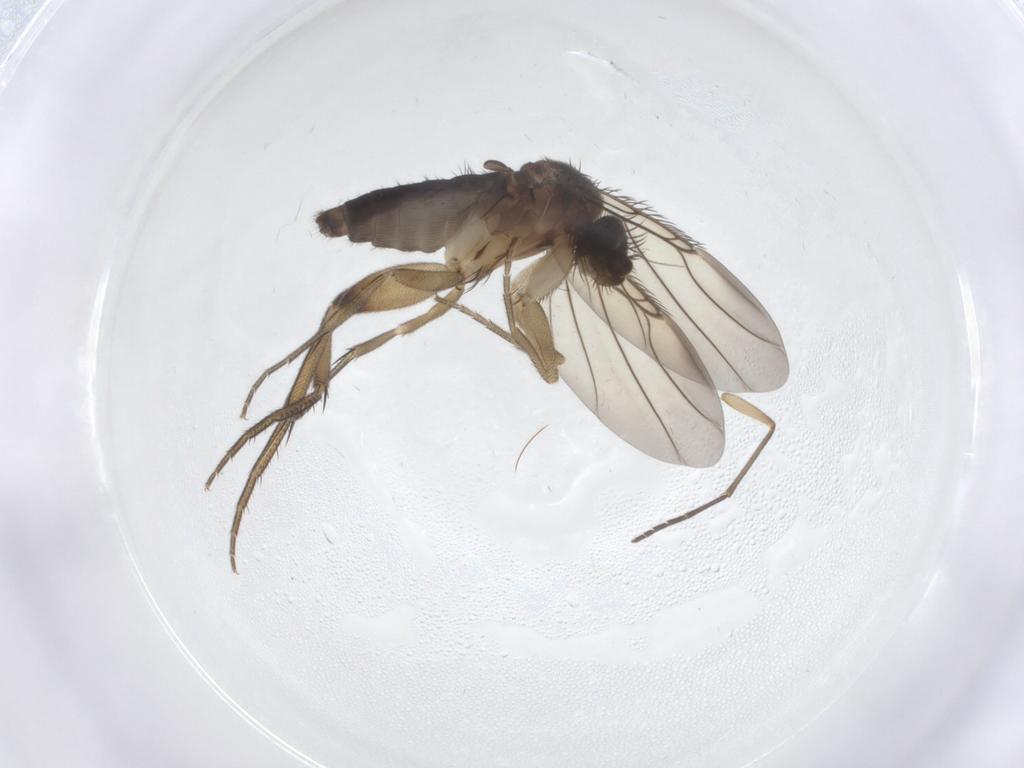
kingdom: Animalia
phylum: Arthropoda
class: Insecta
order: Diptera
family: Phoridae
